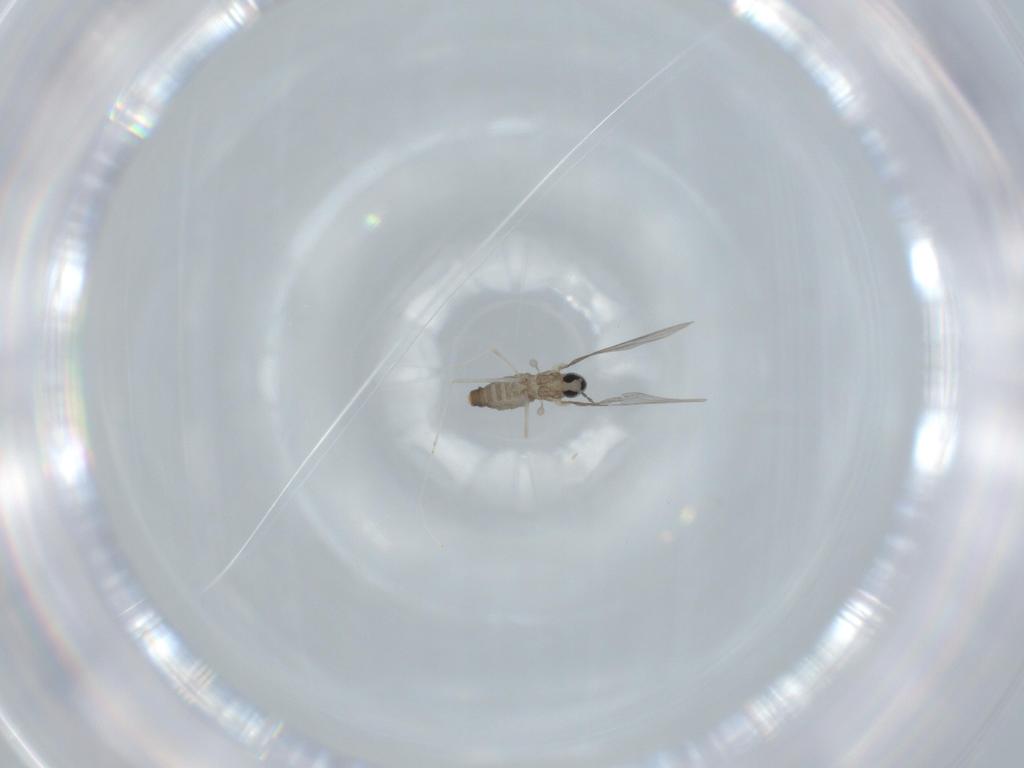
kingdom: Animalia
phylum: Arthropoda
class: Insecta
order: Diptera
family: Cecidomyiidae
